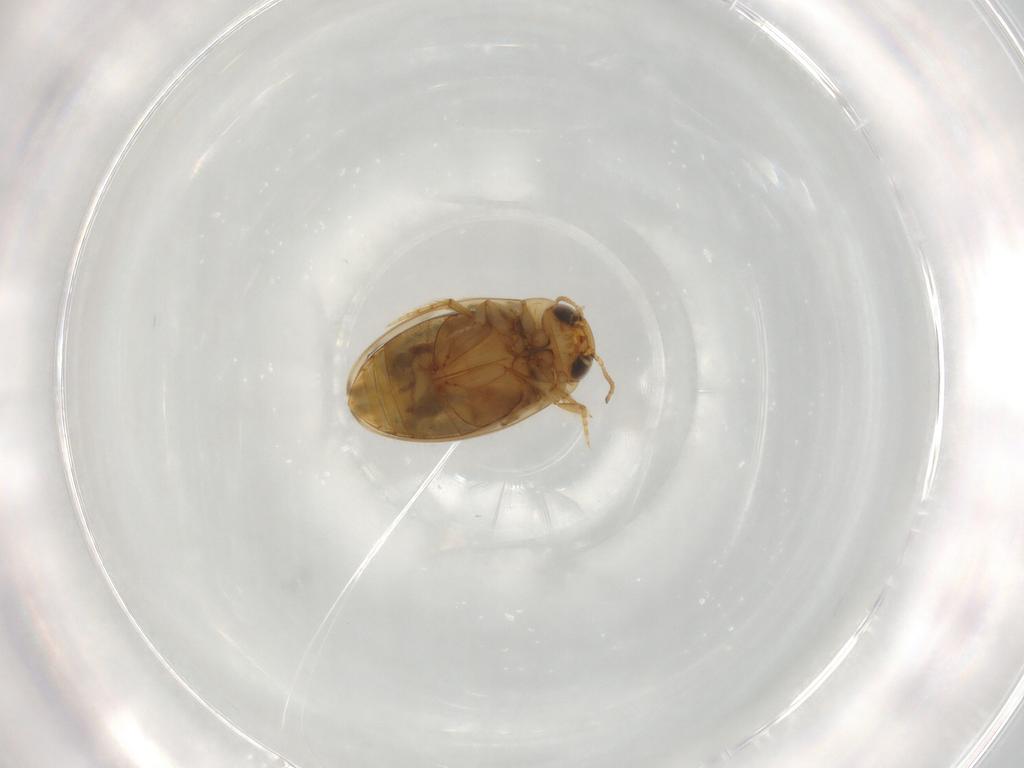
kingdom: Animalia
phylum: Arthropoda
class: Insecta
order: Coleoptera
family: Dytiscidae
